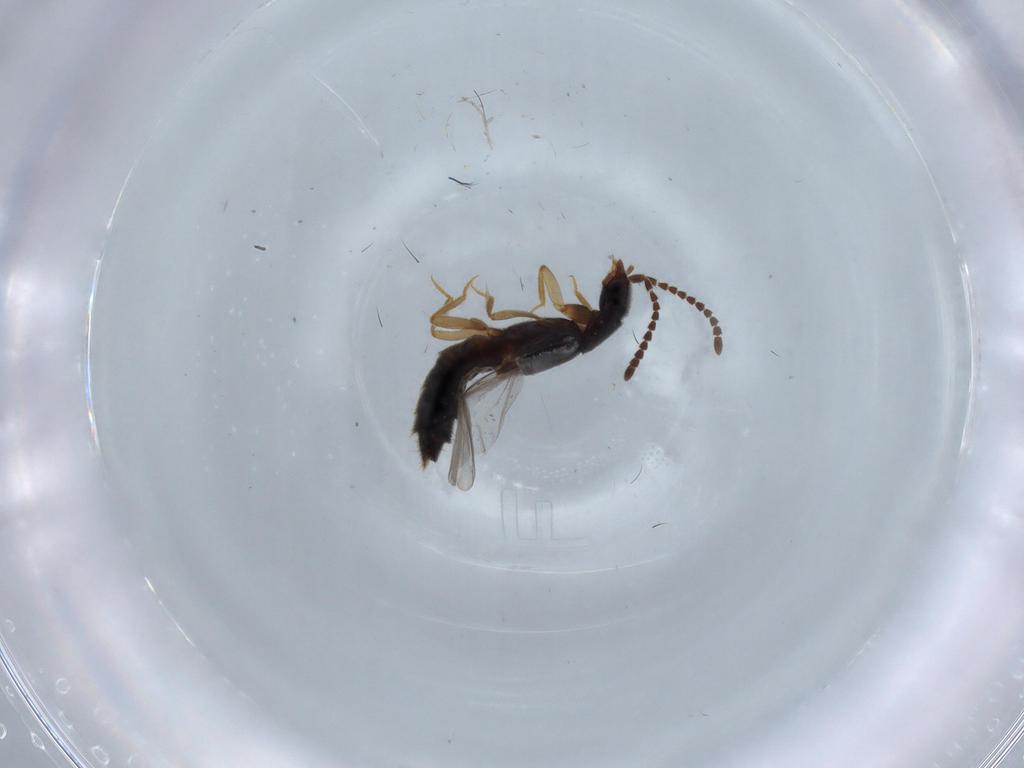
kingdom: Animalia
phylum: Arthropoda
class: Insecta
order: Coleoptera
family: Chrysomelidae
